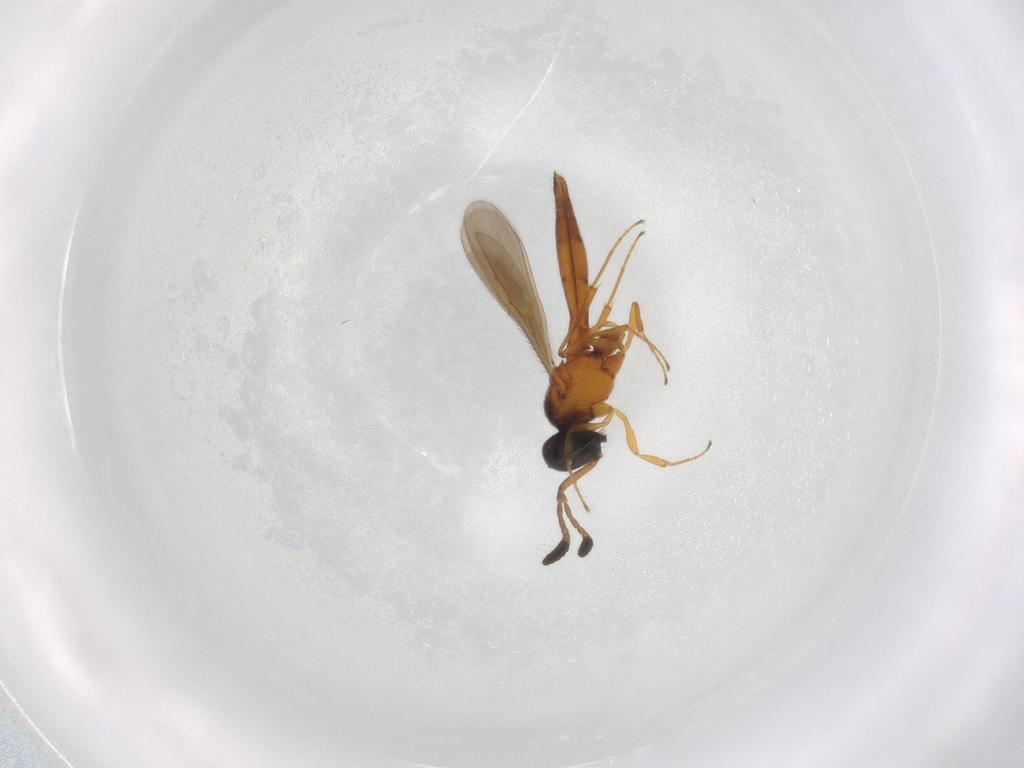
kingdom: Animalia
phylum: Arthropoda
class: Insecta
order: Hymenoptera
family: Scelionidae
